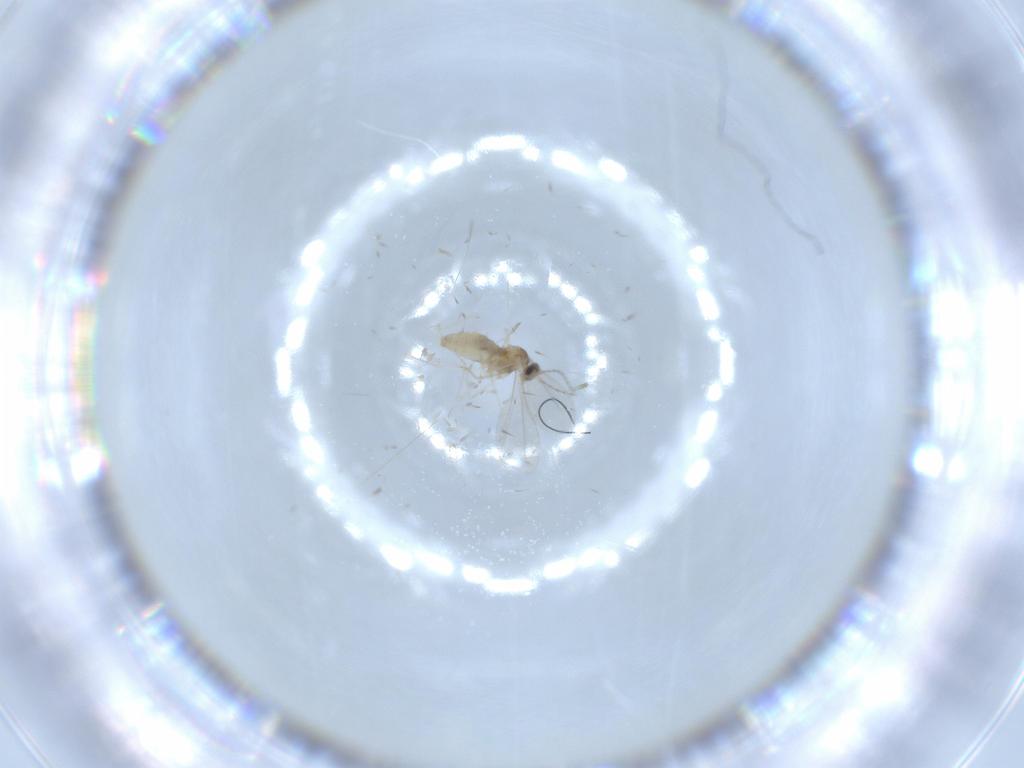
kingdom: Animalia
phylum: Arthropoda
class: Insecta
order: Diptera
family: Cecidomyiidae
